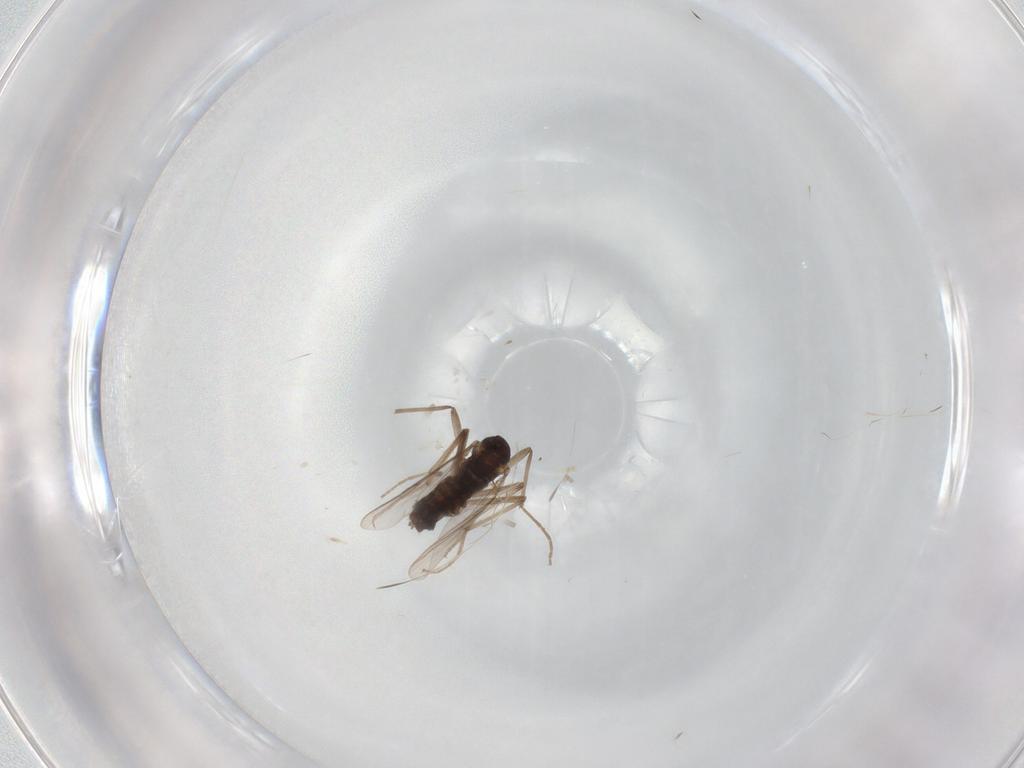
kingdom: Animalia
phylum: Arthropoda
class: Insecta
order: Diptera
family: Chironomidae
